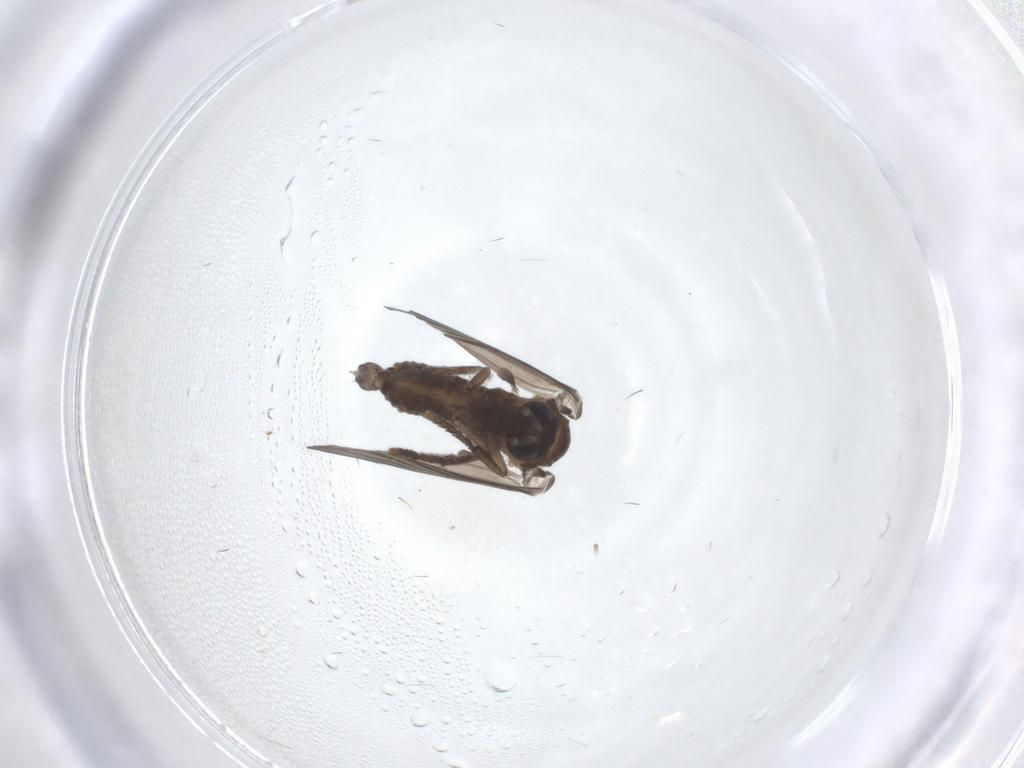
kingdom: Animalia
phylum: Arthropoda
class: Insecta
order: Diptera
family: Psychodidae
